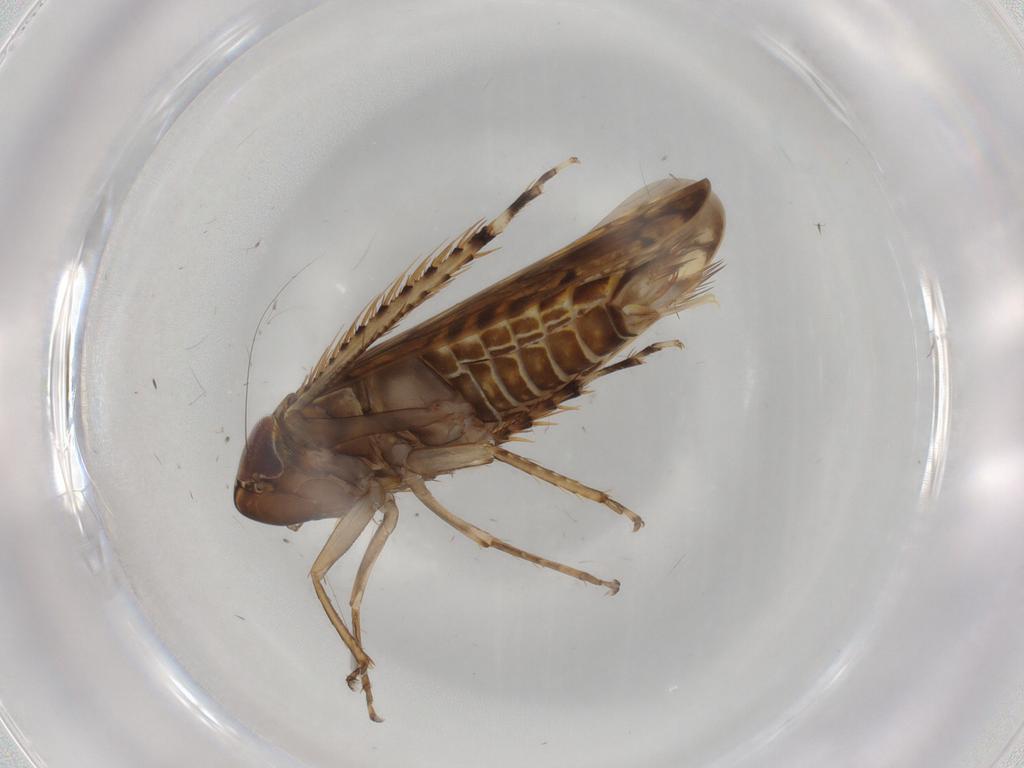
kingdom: Animalia
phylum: Arthropoda
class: Insecta
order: Hemiptera
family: Cicadellidae
